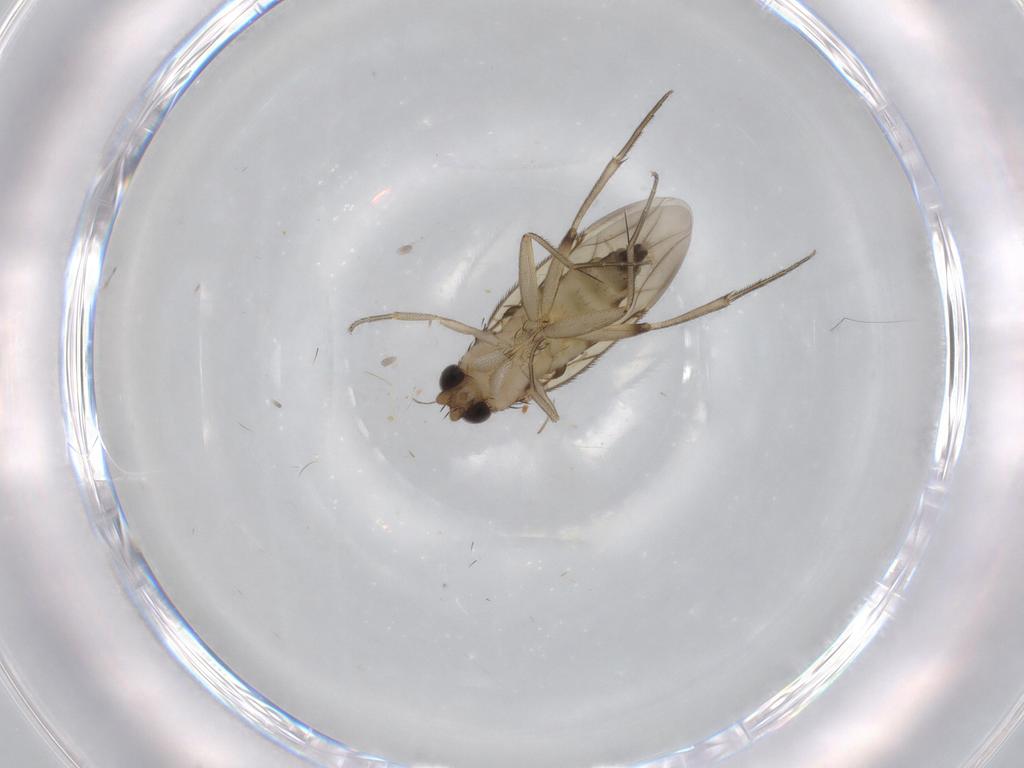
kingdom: Animalia
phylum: Arthropoda
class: Insecta
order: Diptera
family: Phoridae
